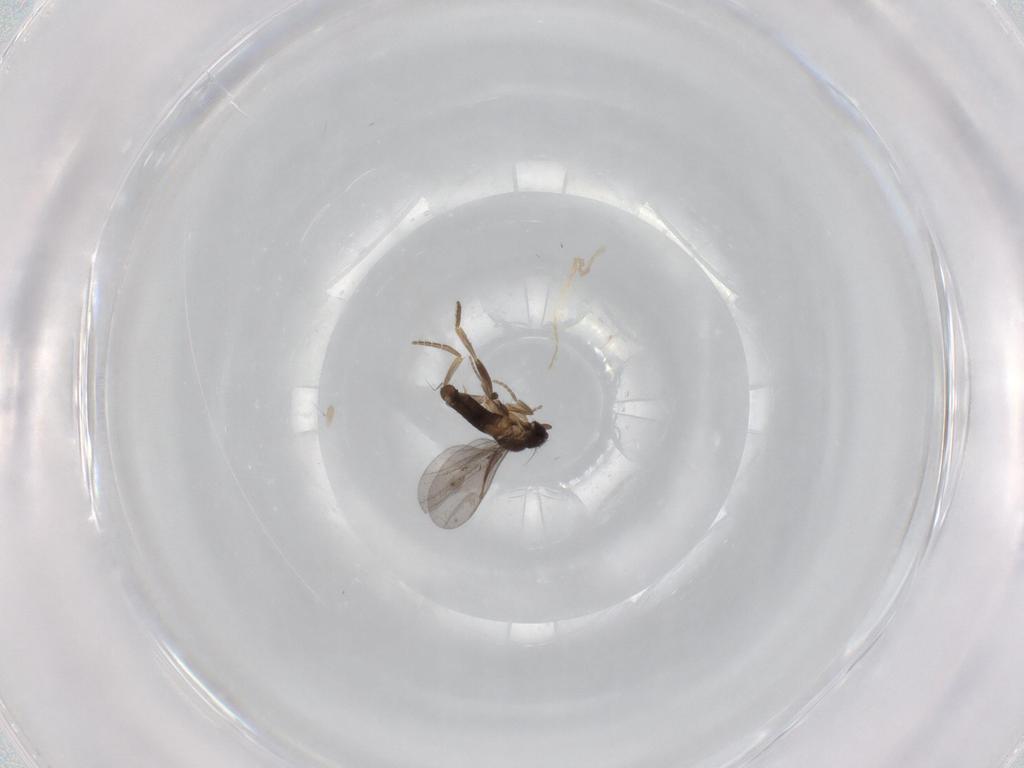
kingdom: Animalia
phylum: Arthropoda
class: Insecta
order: Diptera
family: Phoridae
